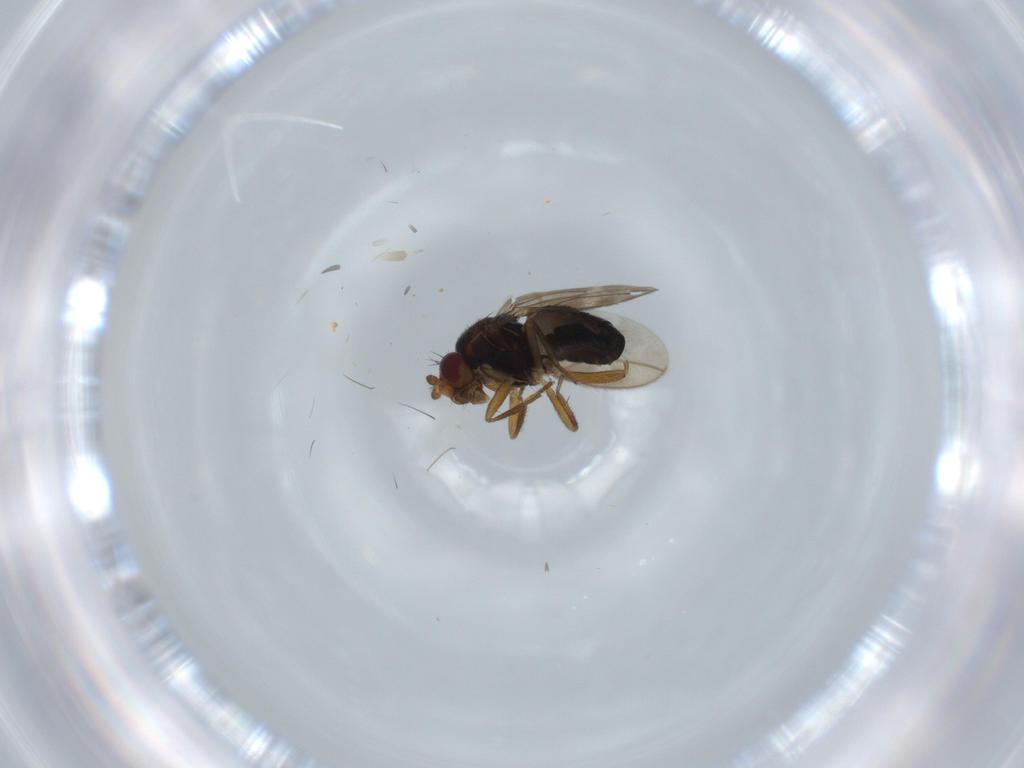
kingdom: Animalia
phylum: Arthropoda
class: Insecta
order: Diptera
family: Sphaeroceridae
